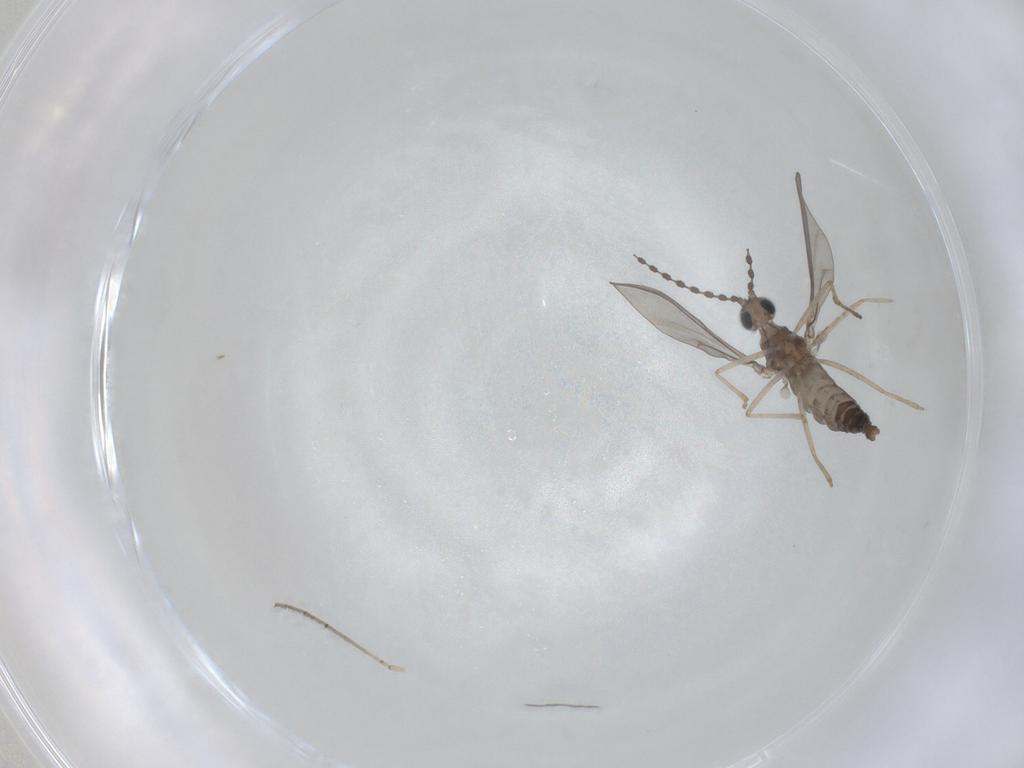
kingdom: Animalia
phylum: Arthropoda
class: Insecta
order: Diptera
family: Cecidomyiidae
